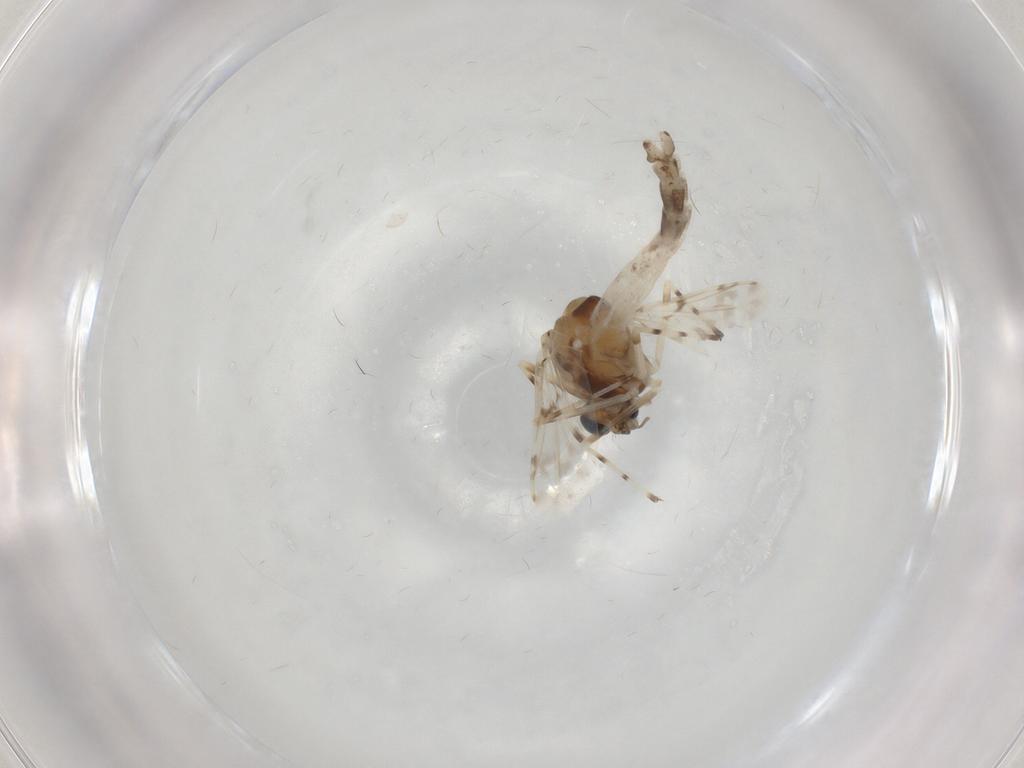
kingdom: Animalia
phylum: Arthropoda
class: Insecta
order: Diptera
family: Chironomidae
